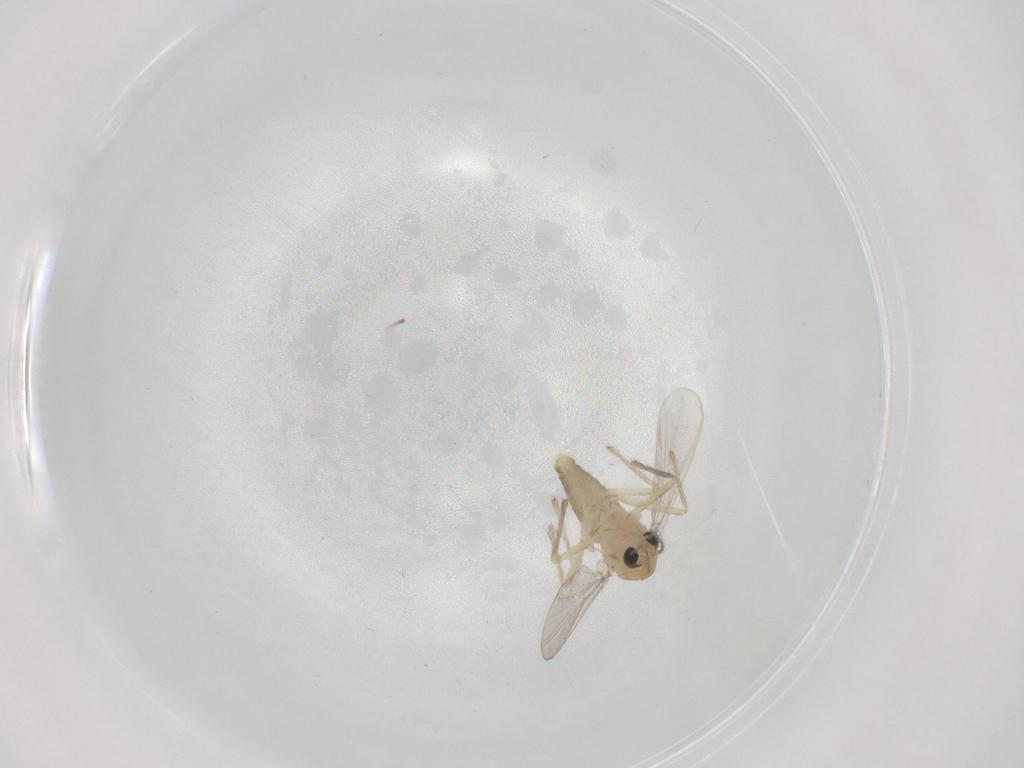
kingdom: Animalia
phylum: Arthropoda
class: Insecta
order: Diptera
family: Chironomidae
